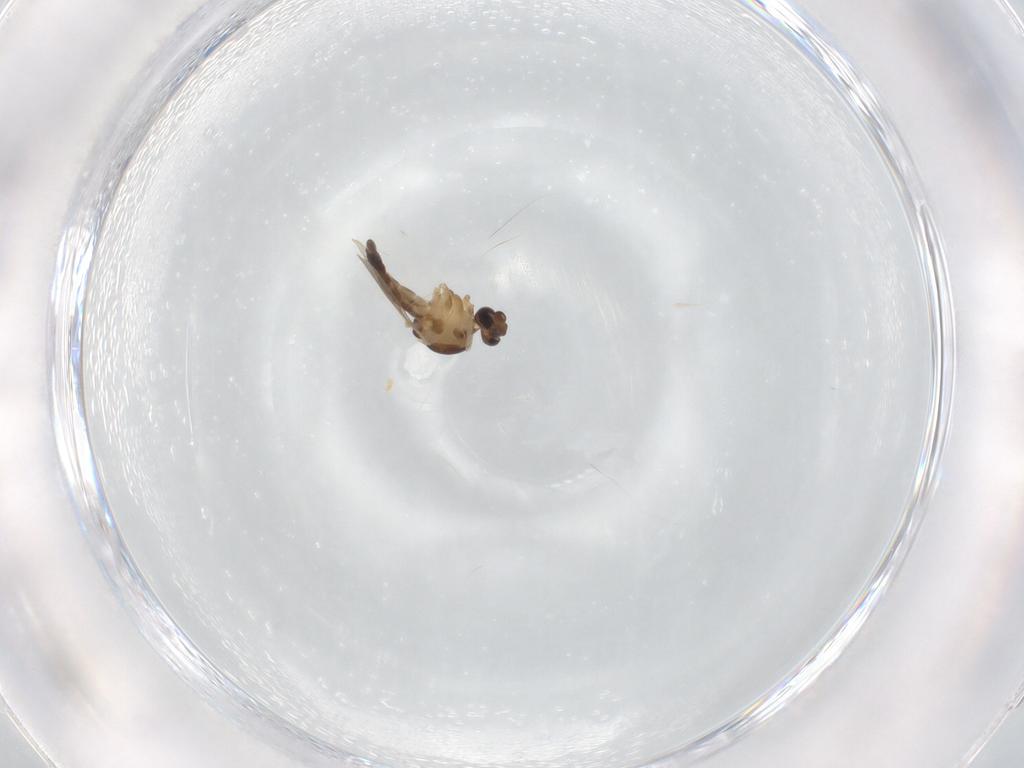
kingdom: Animalia
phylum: Arthropoda
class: Insecta
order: Diptera
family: Ceratopogonidae
